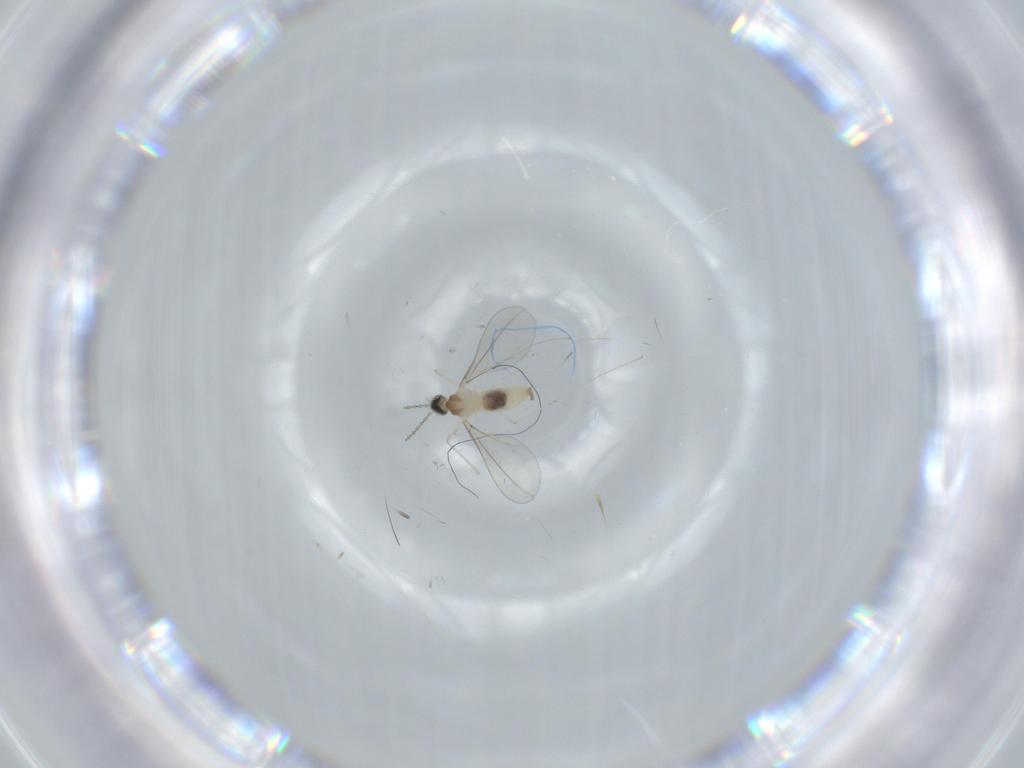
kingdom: Animalia
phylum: Arthropoda
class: Insecta
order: Diptera
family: Cecidomyiidae
